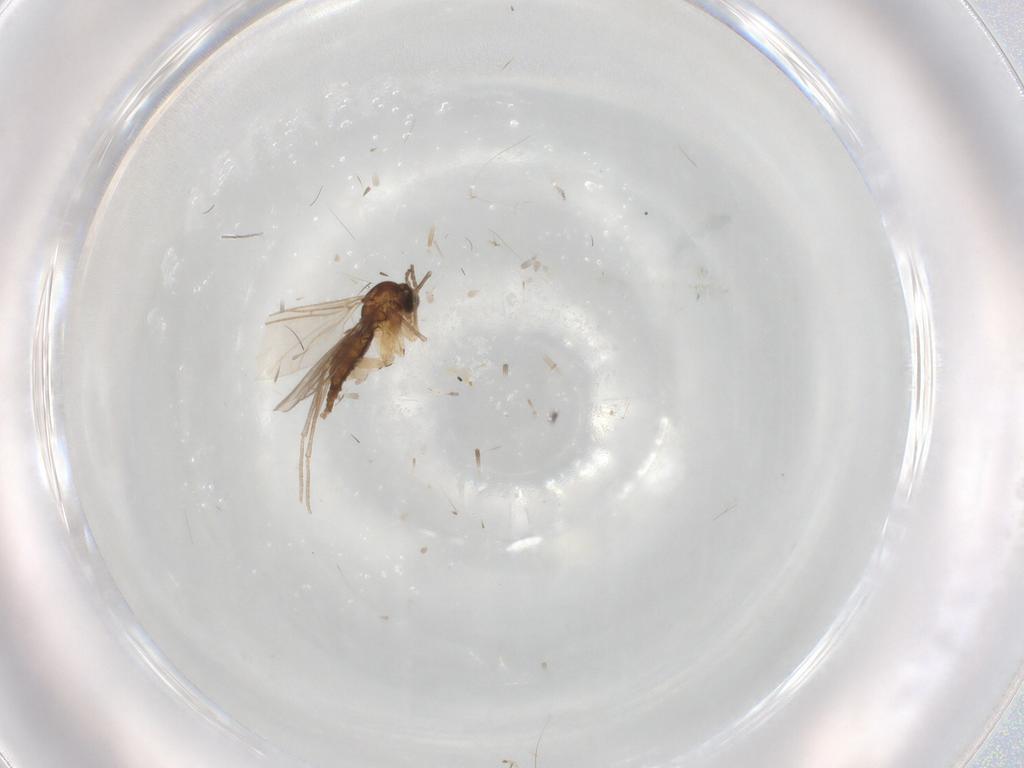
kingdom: Animalia
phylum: Arthropoda
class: Insecta
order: Diptera
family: Sciaridae
